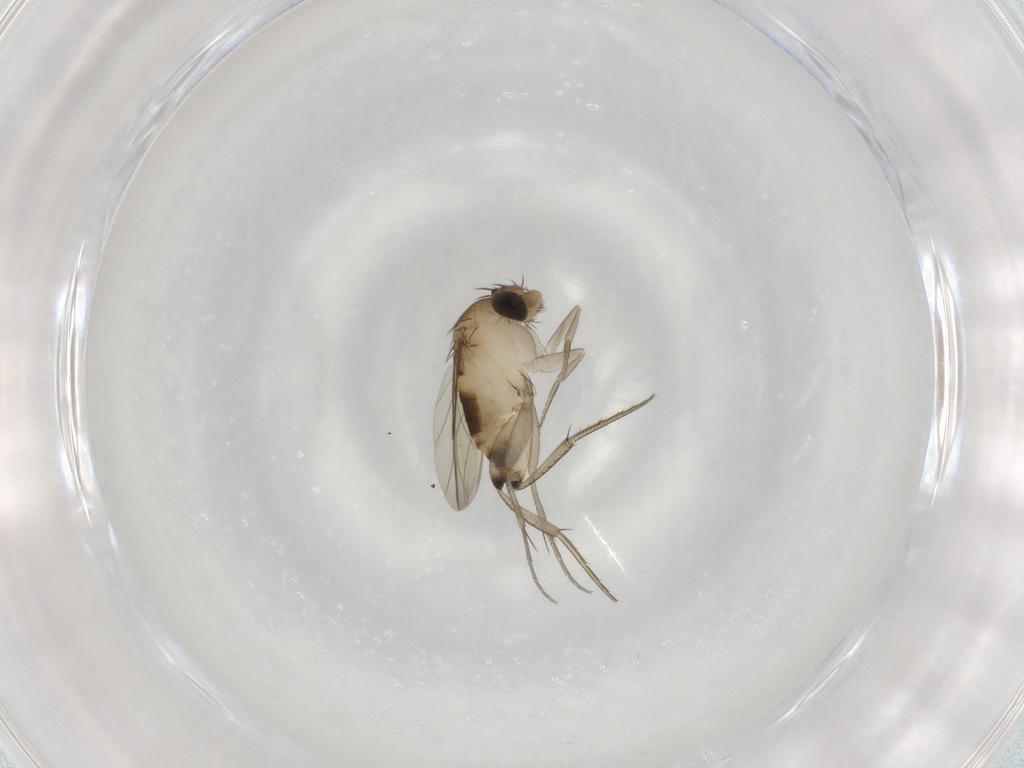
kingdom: Animalia
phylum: Arthropoda
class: Insecta
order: Diptera
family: Phoridae
